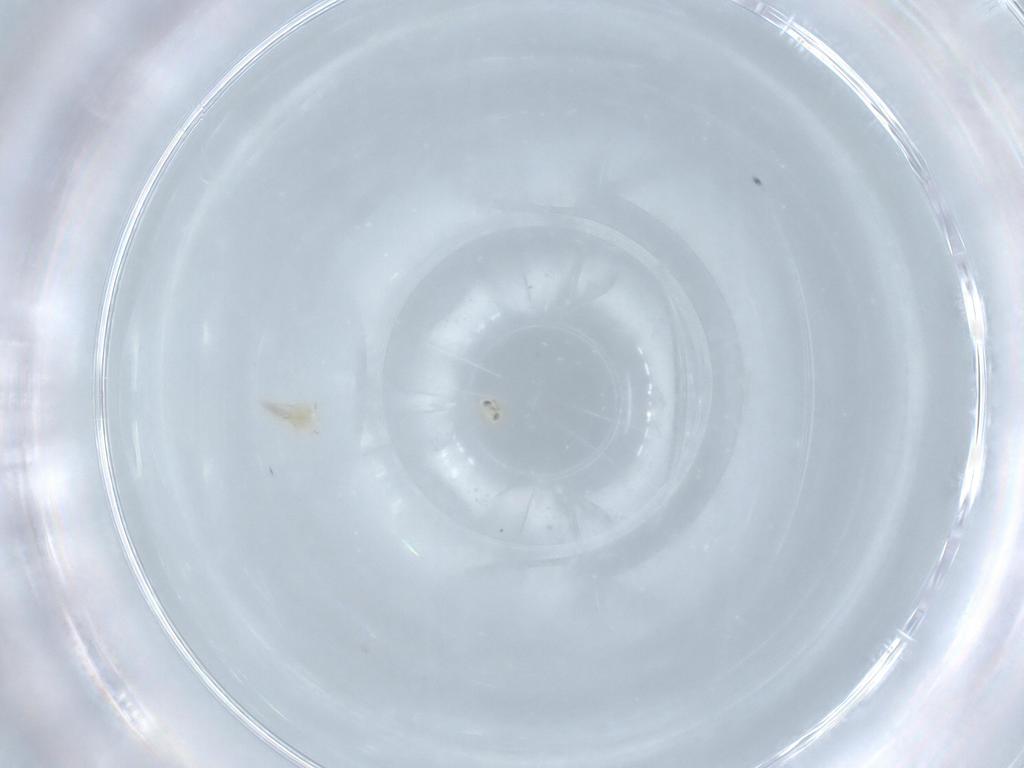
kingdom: Animalia
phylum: Arthropoda
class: Insecta
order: Hymenoptera
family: Aphelinidae
